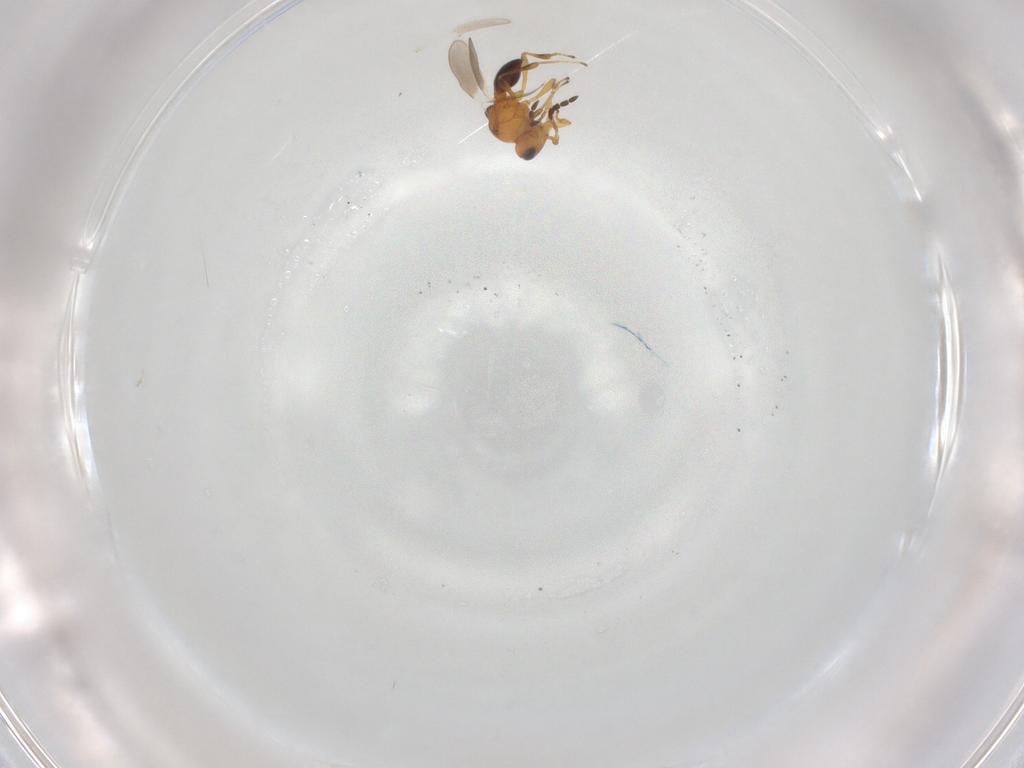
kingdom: Animalia
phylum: Arthropoda
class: Insecta
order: Hymenoptera
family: Platygastridae
